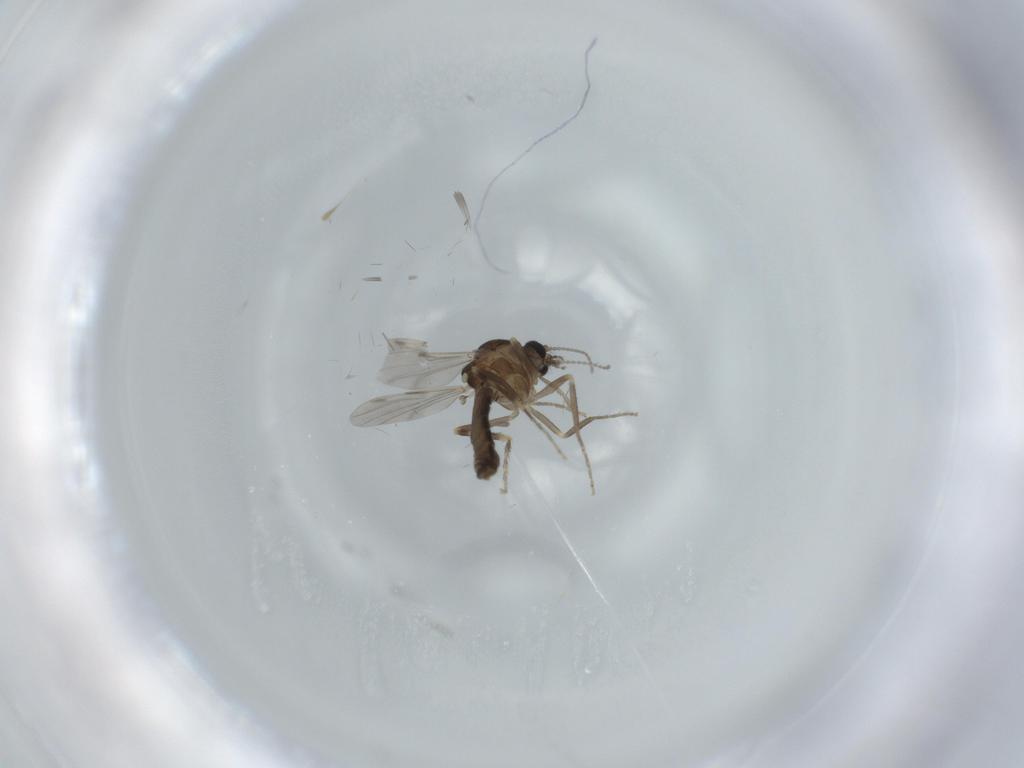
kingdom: Animalia
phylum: Arthropoda
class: Insecta
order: Diptera
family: Ceratopogonidae
